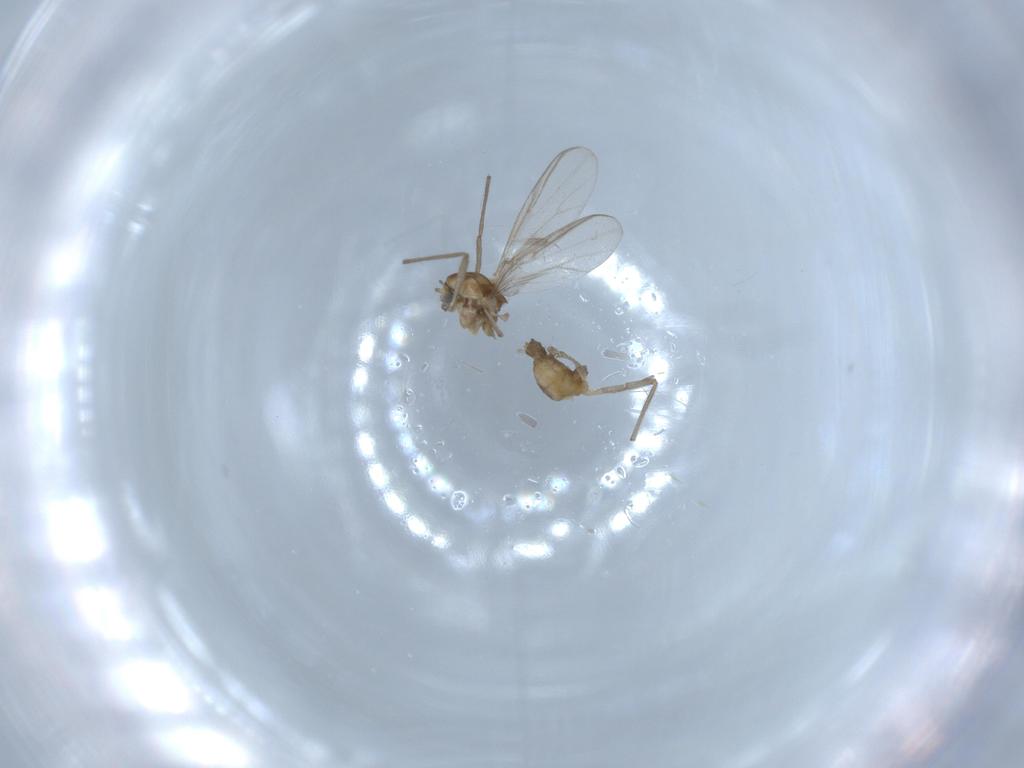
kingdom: Animalia
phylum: Arthropoda
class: Insecta
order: Diptera
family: Chironomidae
